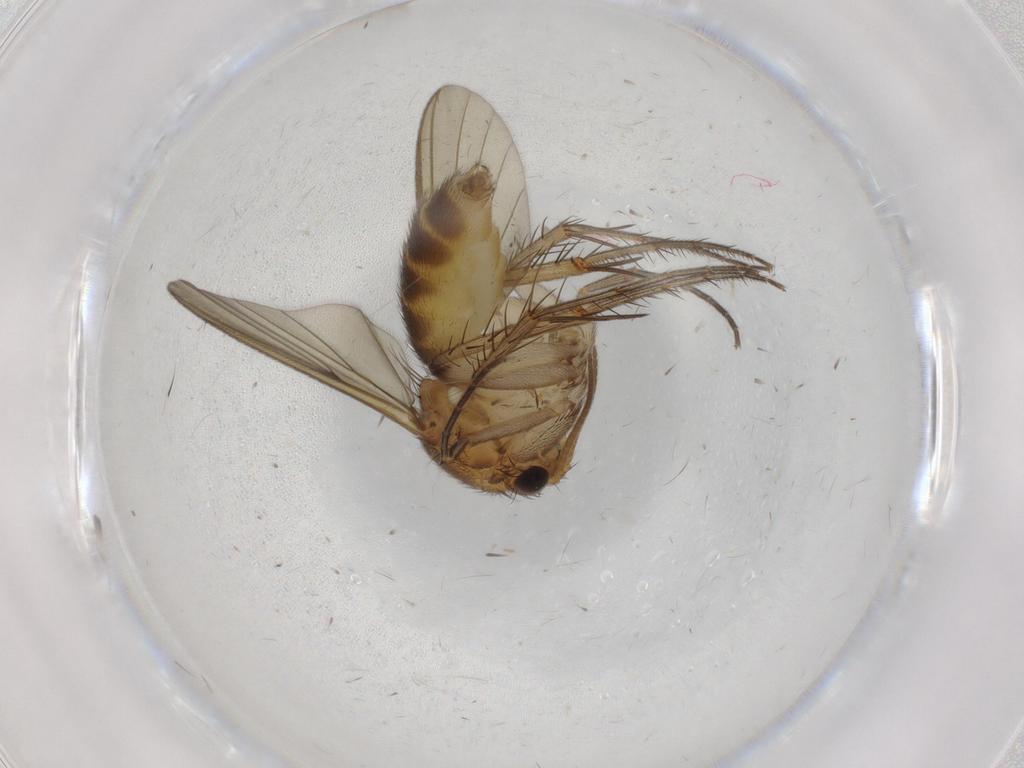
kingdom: Animalia
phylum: Arthropoda
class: Insecta
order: Diptera
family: Mycetophilidae
